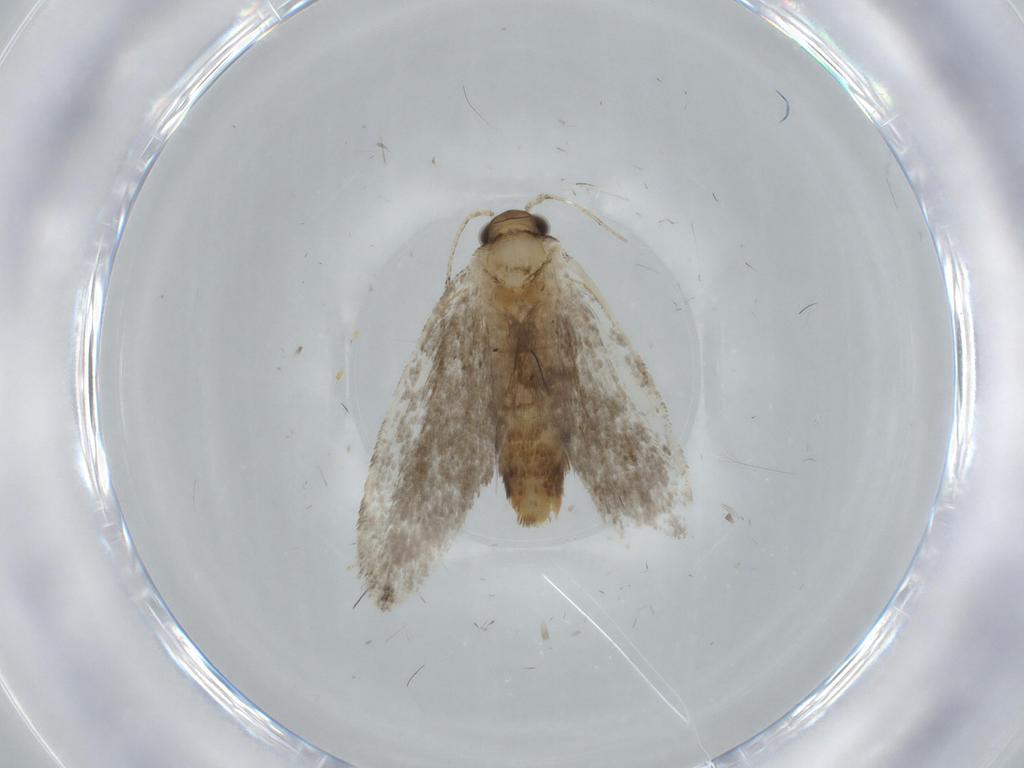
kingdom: Animalia
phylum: Arthropoda
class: Insecta
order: Lepidoptera
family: Tineidae
